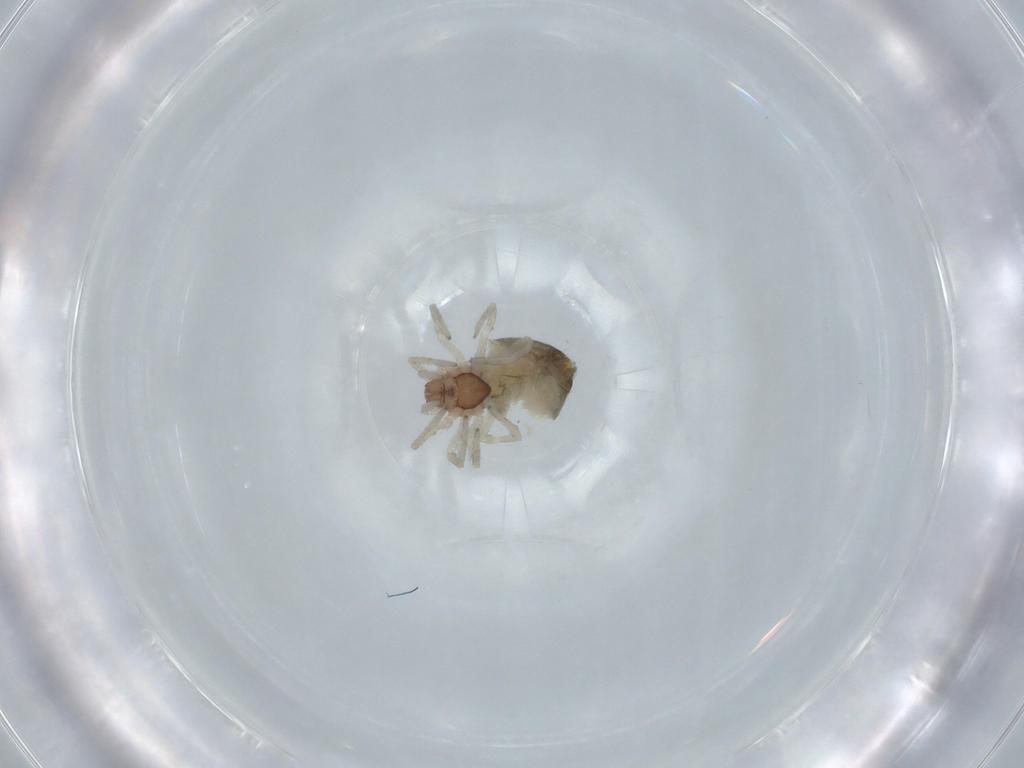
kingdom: Animalia
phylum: Arthropoda
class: Arachnida
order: Araneae
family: Dictynidae
